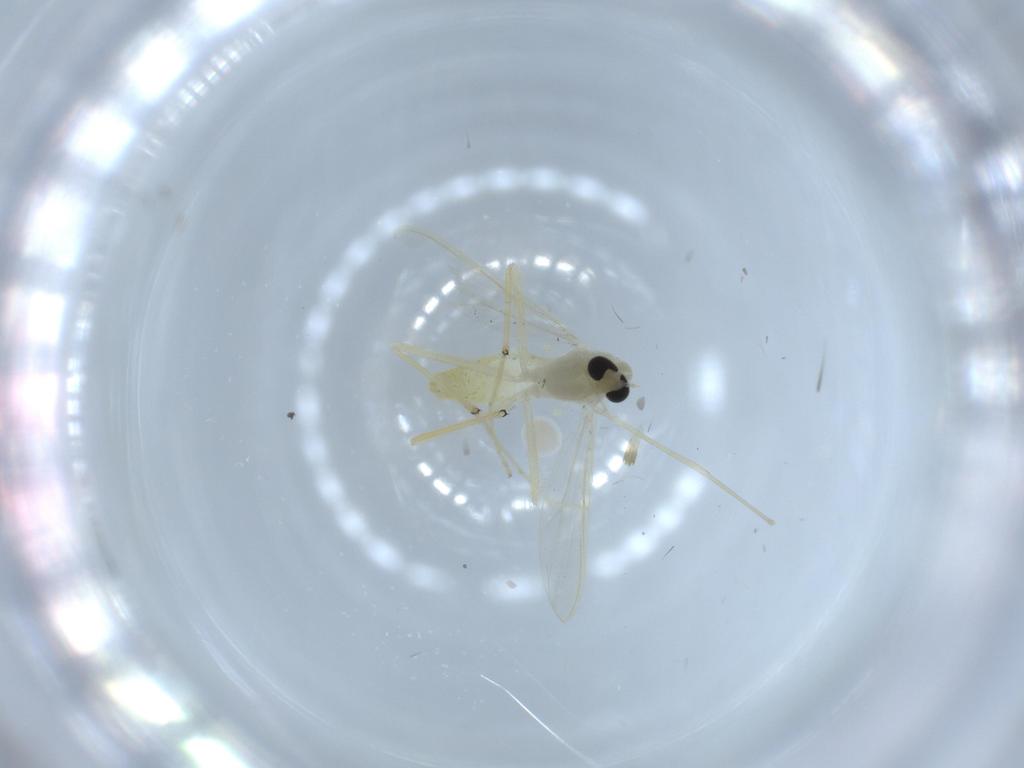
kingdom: Animalia
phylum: Arthropoda
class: Insecta
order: Diptera
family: Chironomidae
